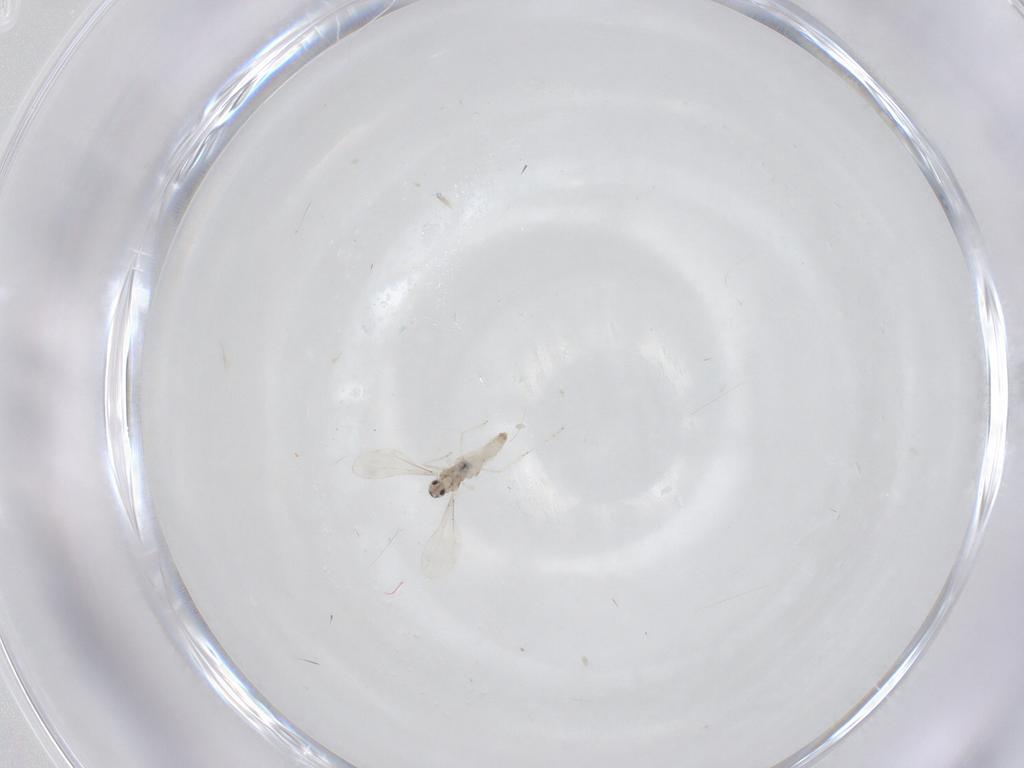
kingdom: Animalia
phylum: Arthropoda
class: Insecta
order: Diptera
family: Cecidomyiidae
